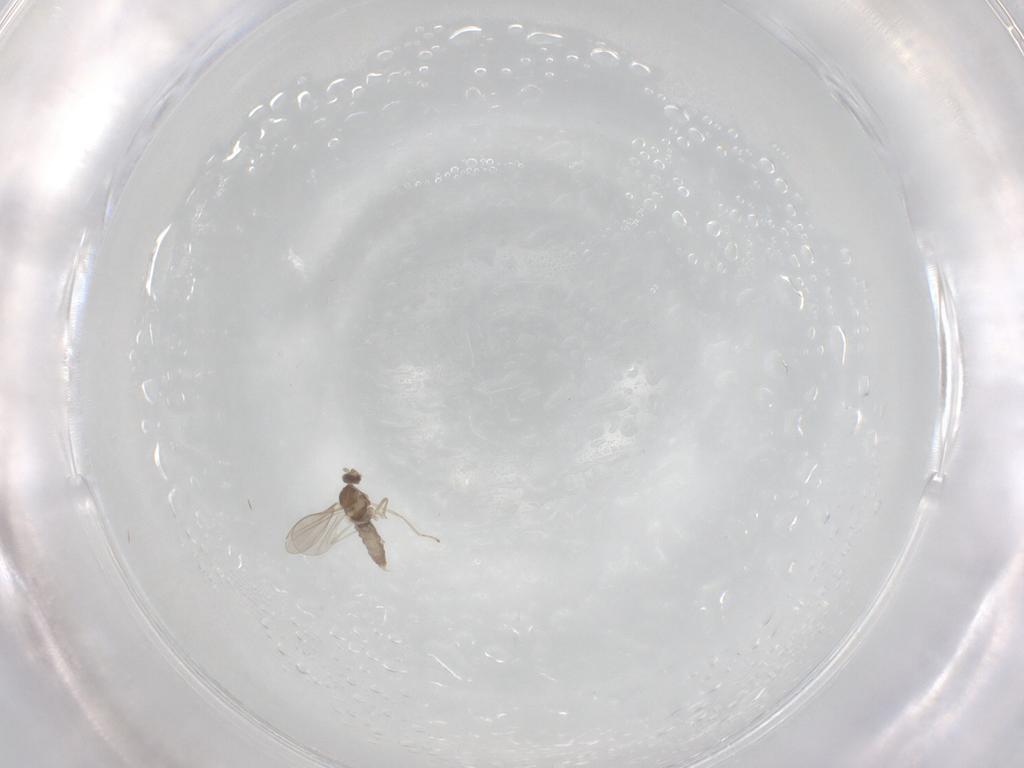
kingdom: Animalia
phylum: Arthropoda
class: Insecta
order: Diptera
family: Cecidomyiidae
